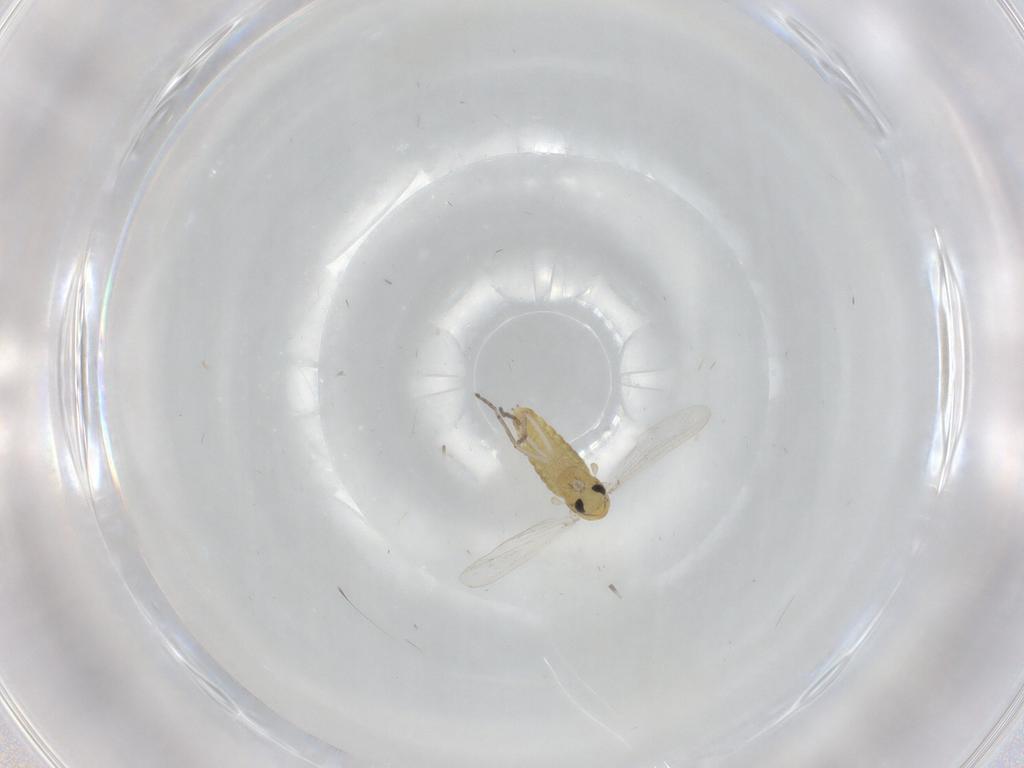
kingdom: Animalia
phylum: Arthropoda
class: Insecta
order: Diptera
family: Chironomidae
